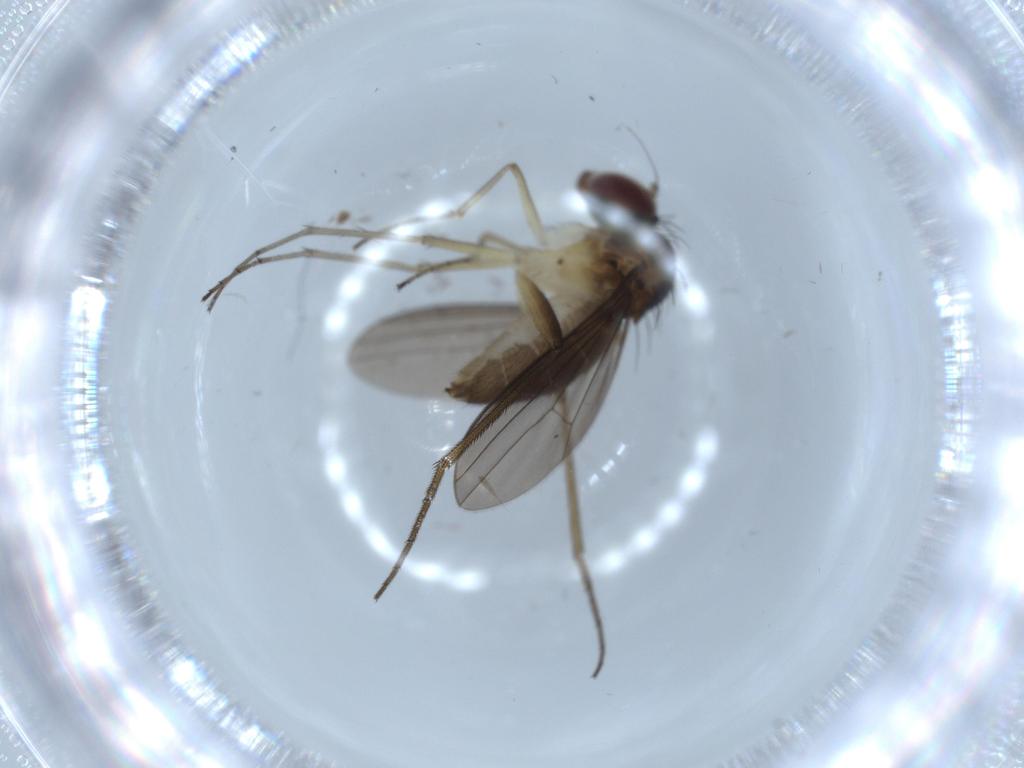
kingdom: Animalia
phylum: Arthropoda
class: Insecta
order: Diptera
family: Dolichopodidae
